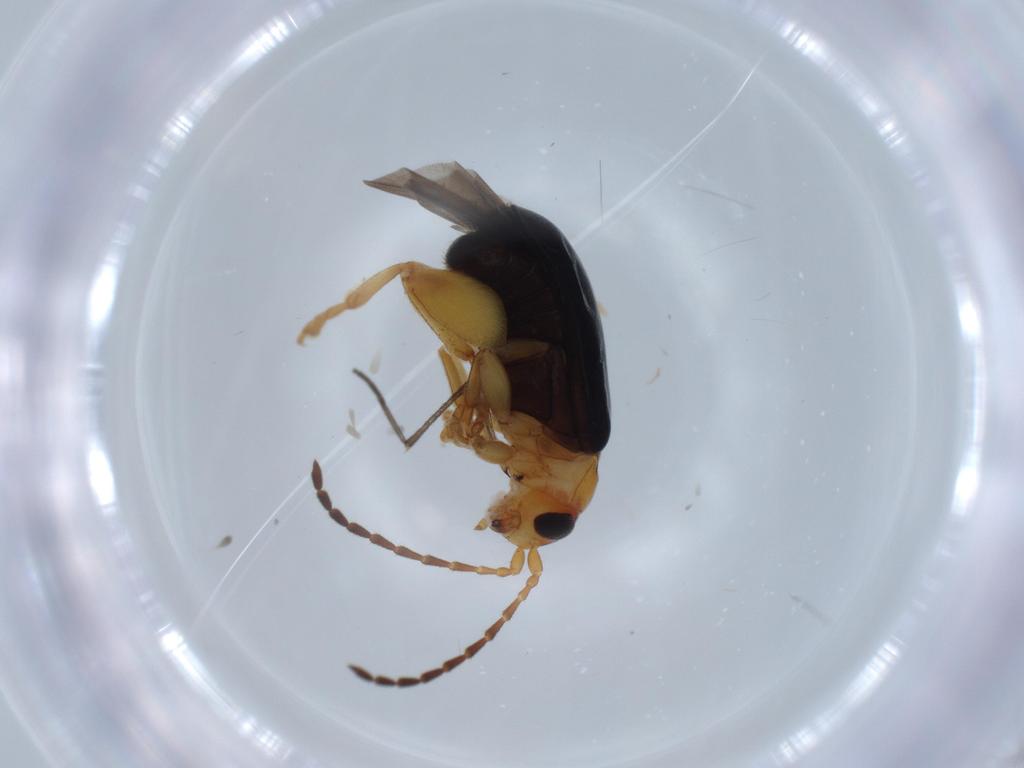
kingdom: Animalia
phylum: Arthropoda
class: Insecta
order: Coleoptera
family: Chrysomelidae
